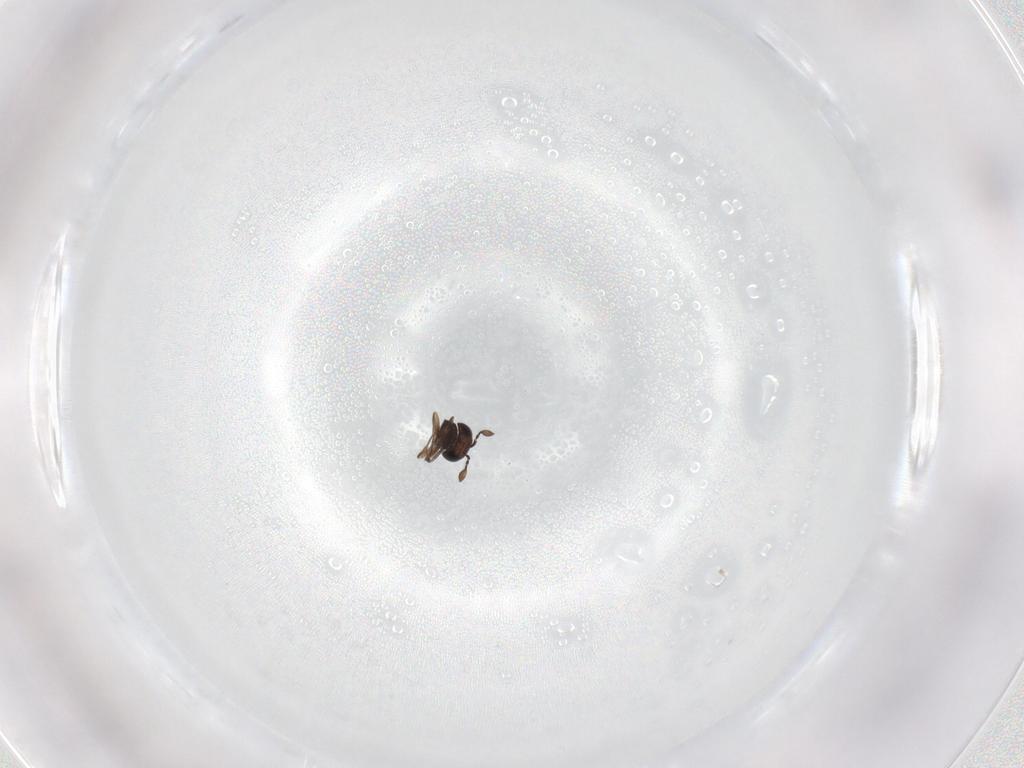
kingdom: Animalia
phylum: Arthropoda
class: Insecta
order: Hymenoptera
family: Scelionidae
